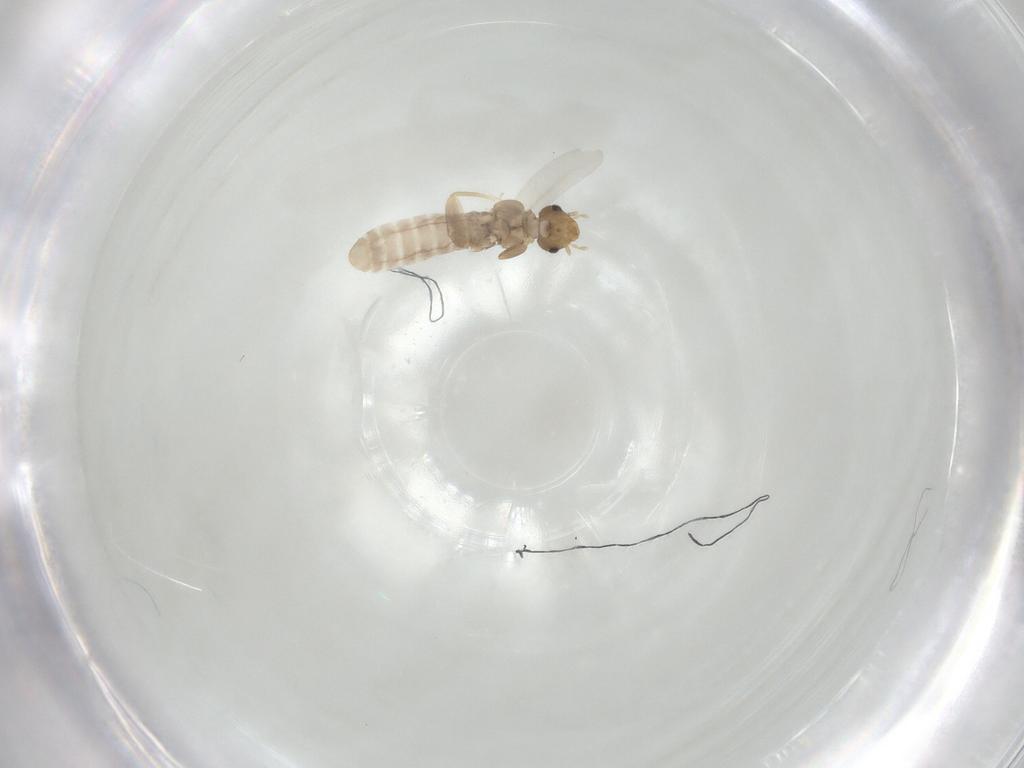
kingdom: Animalia
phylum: Arthropoda
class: Insecta
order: Psocodea
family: Liposcelididae
